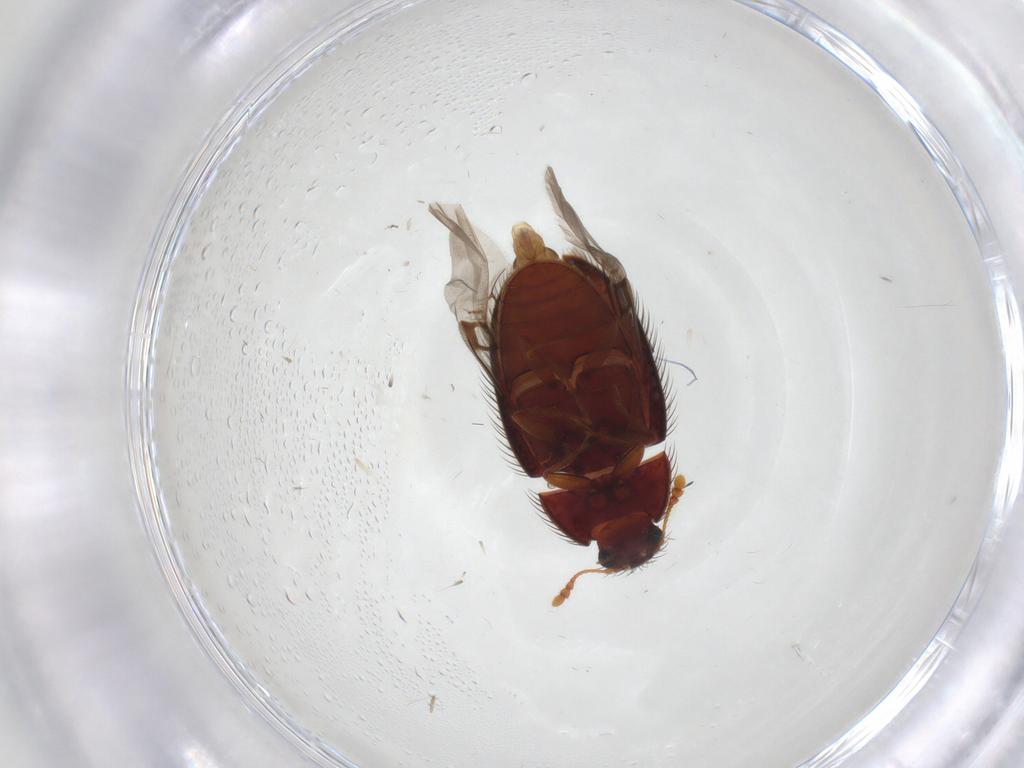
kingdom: Animalia
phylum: Arthropoda
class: Insecta
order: Coleoptera
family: Biphyllidae
